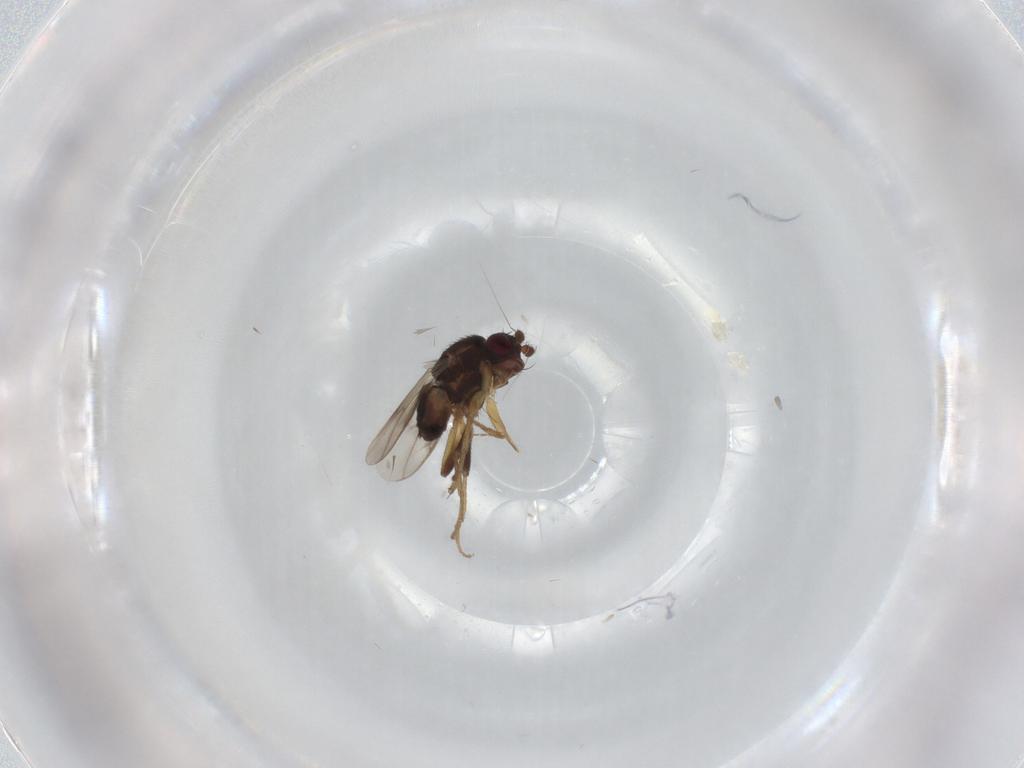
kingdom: Animalia
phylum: Arthropoda
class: Insecta
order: Diptera
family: Sphaeroceridae
